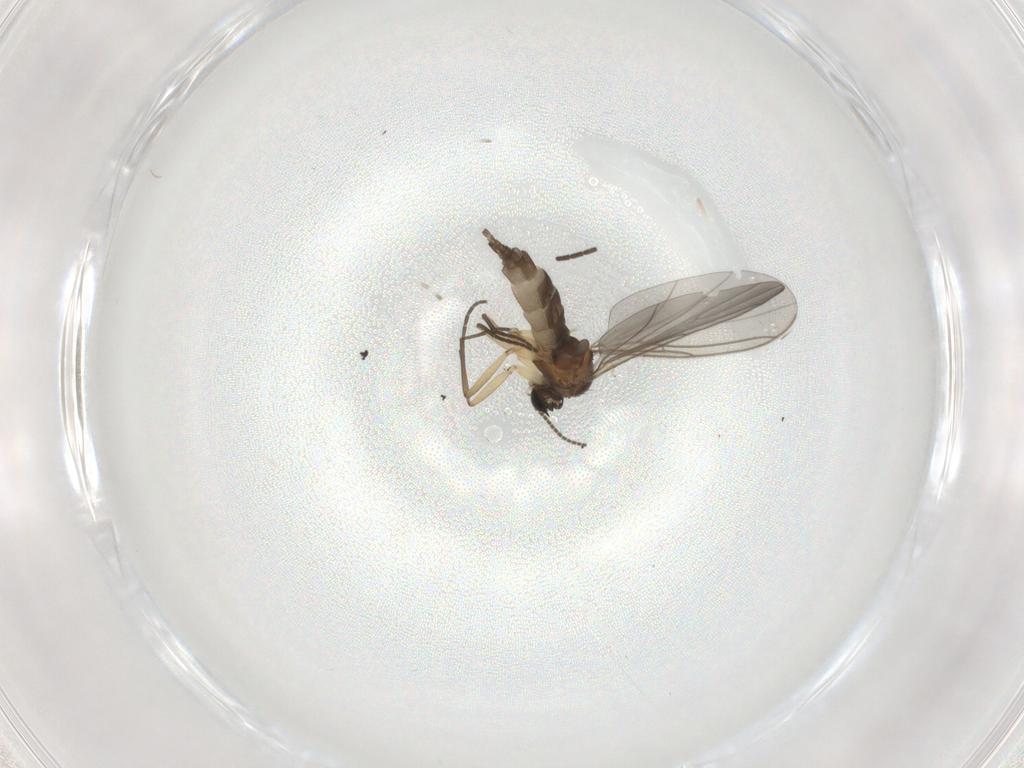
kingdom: Animalia
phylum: Arthropoda
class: Insecta
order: Diptera
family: Sciaridae
